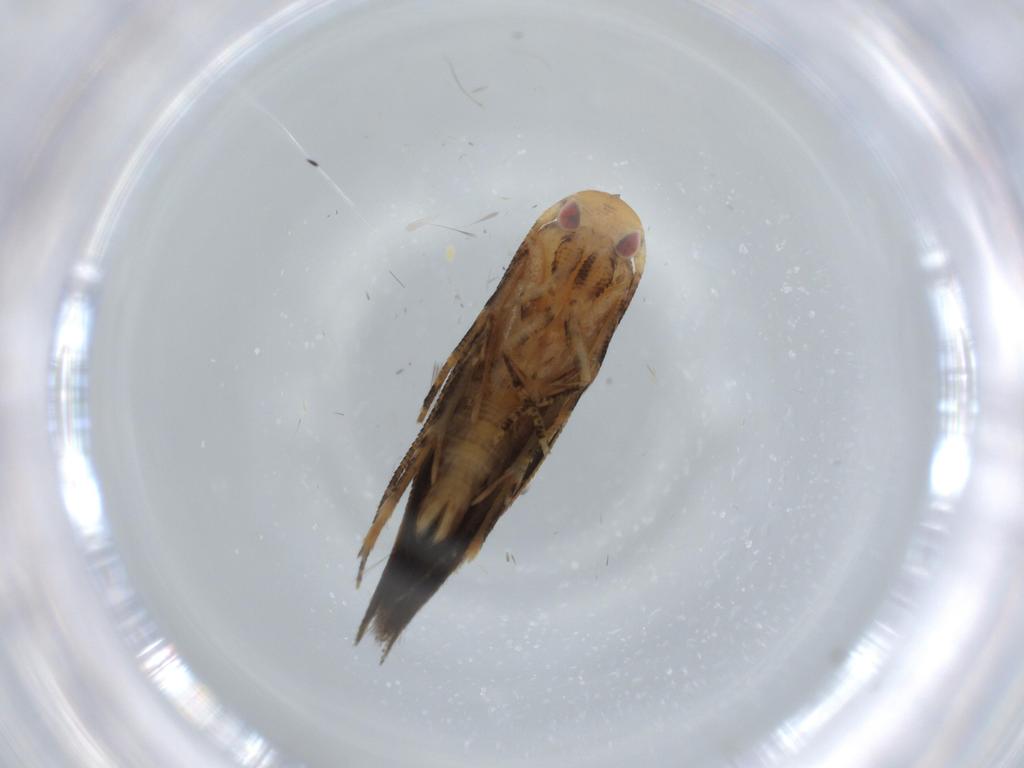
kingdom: Animalia
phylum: Arthropoda
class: Insecta
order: Lepidoptera
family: Tineidae
